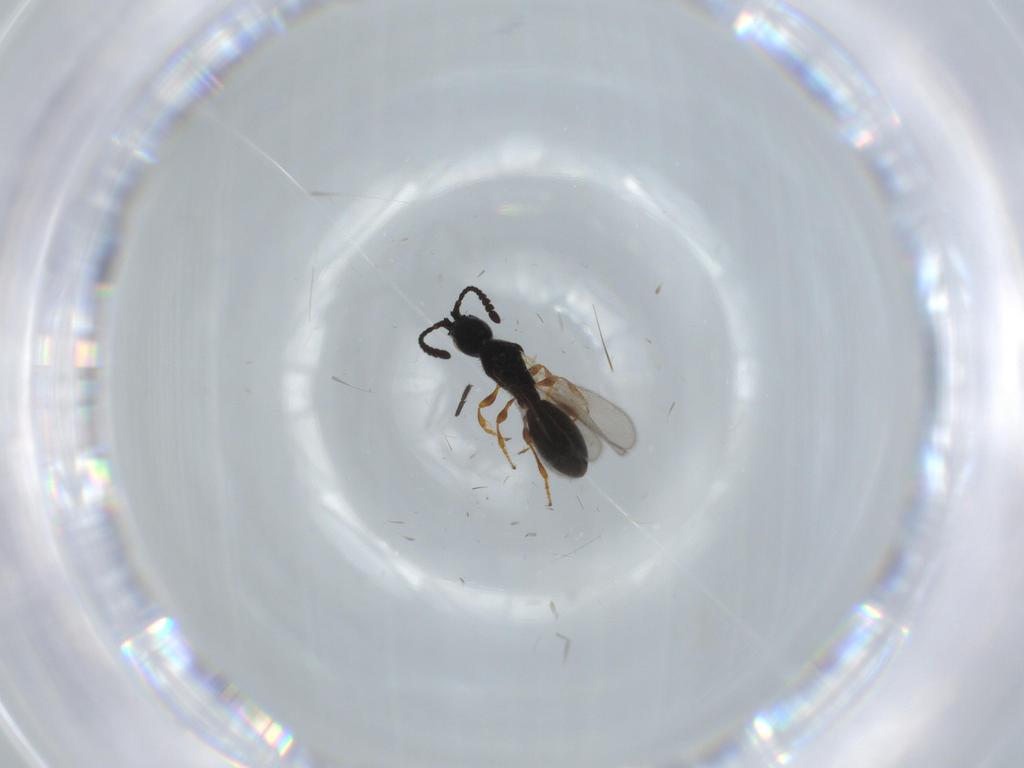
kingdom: Animalia
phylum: Arthropoda
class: Insecta
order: Hymenoptera
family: Diapriidae
